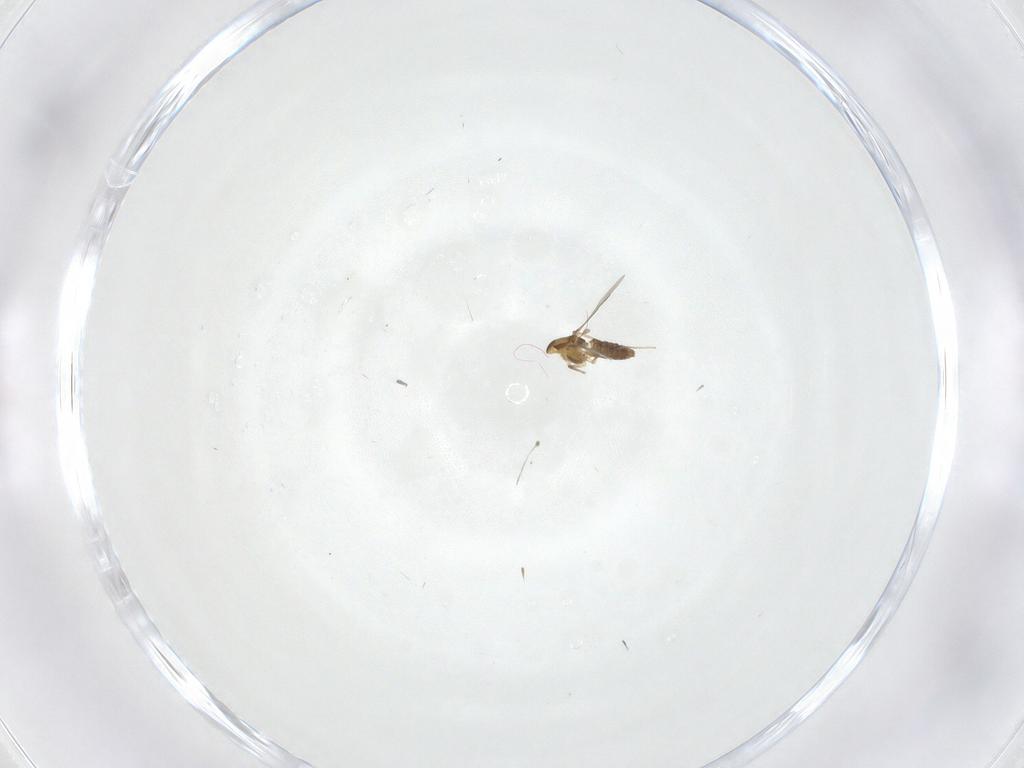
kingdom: Animalia
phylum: Arthropoda
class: Insecta
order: Diptera
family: Chironomidae
